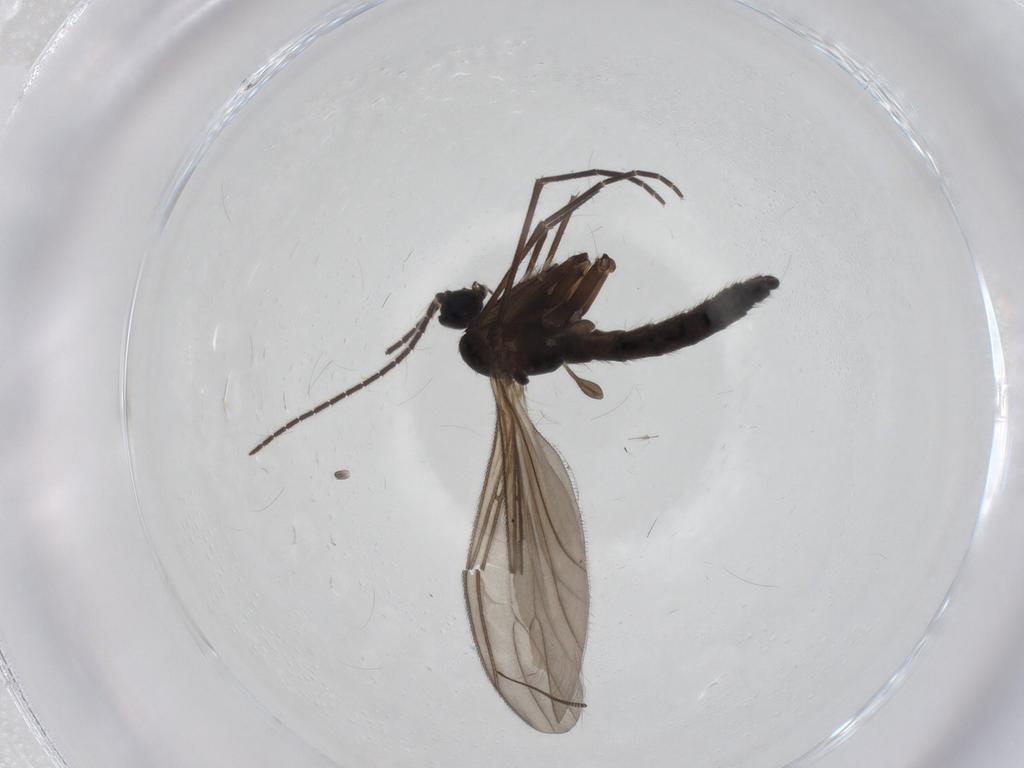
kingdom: Animalia
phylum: Arthropoda
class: Insecta
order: Diptera
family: Sciaridae
